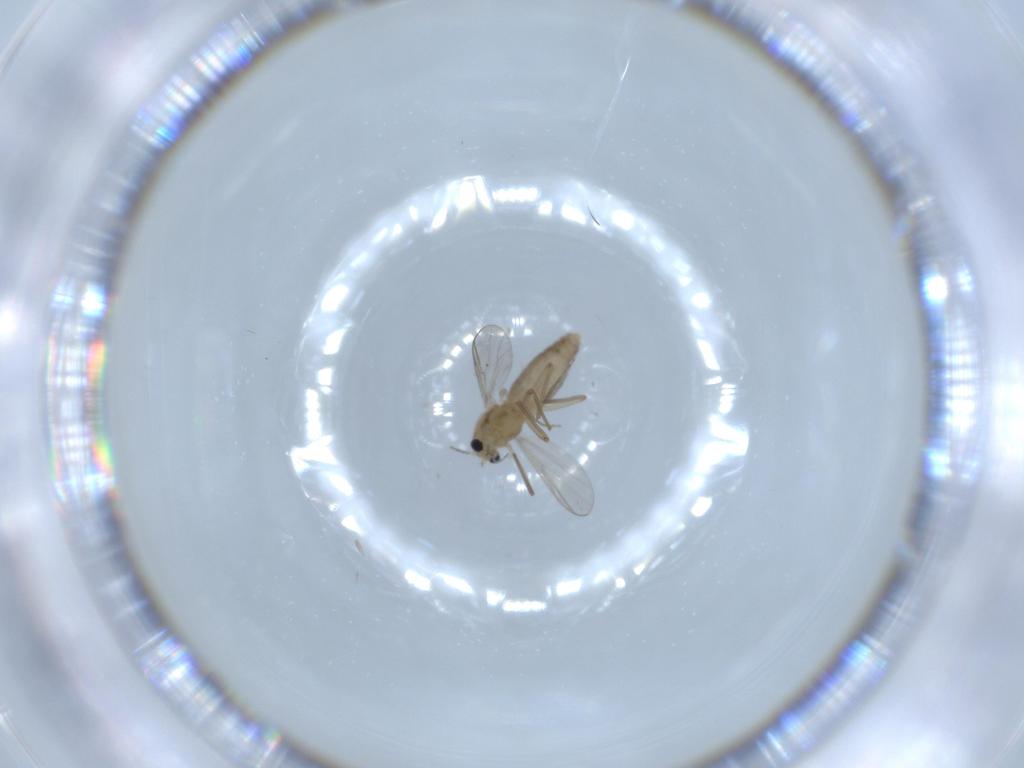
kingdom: Animalia
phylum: Arthropoda
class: Insecta
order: Diptera
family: Chironomidae
